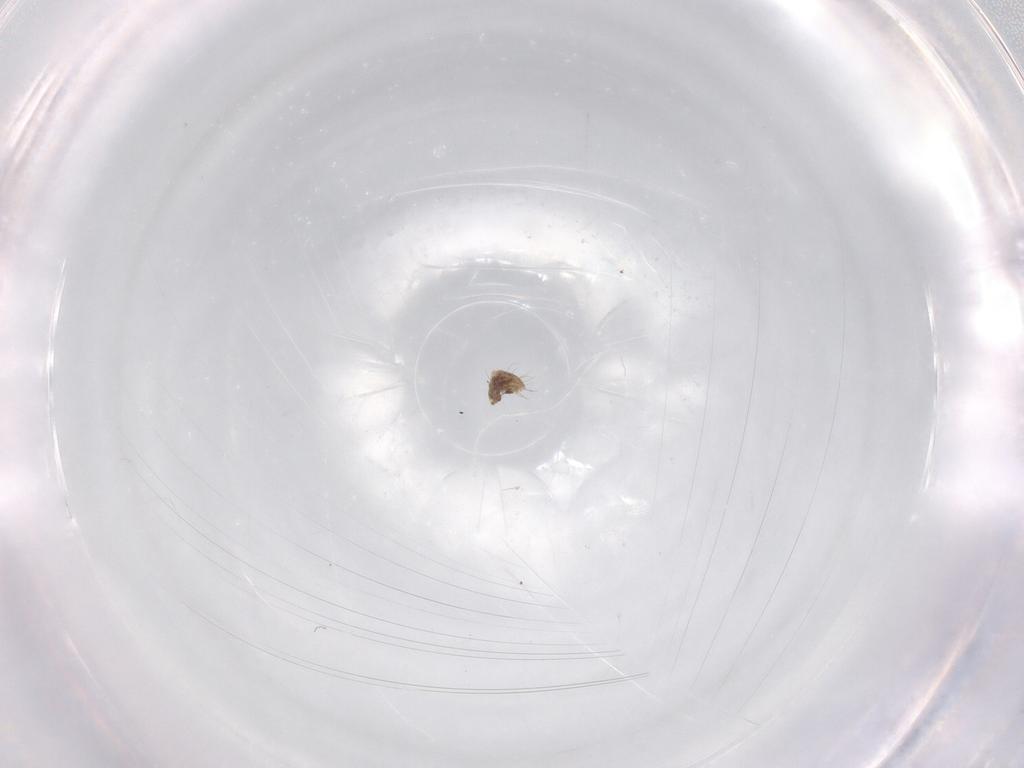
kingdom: Animalia
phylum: Arthropoda
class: Arachnida
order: Sarcoptiformes
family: Humerobatidae
